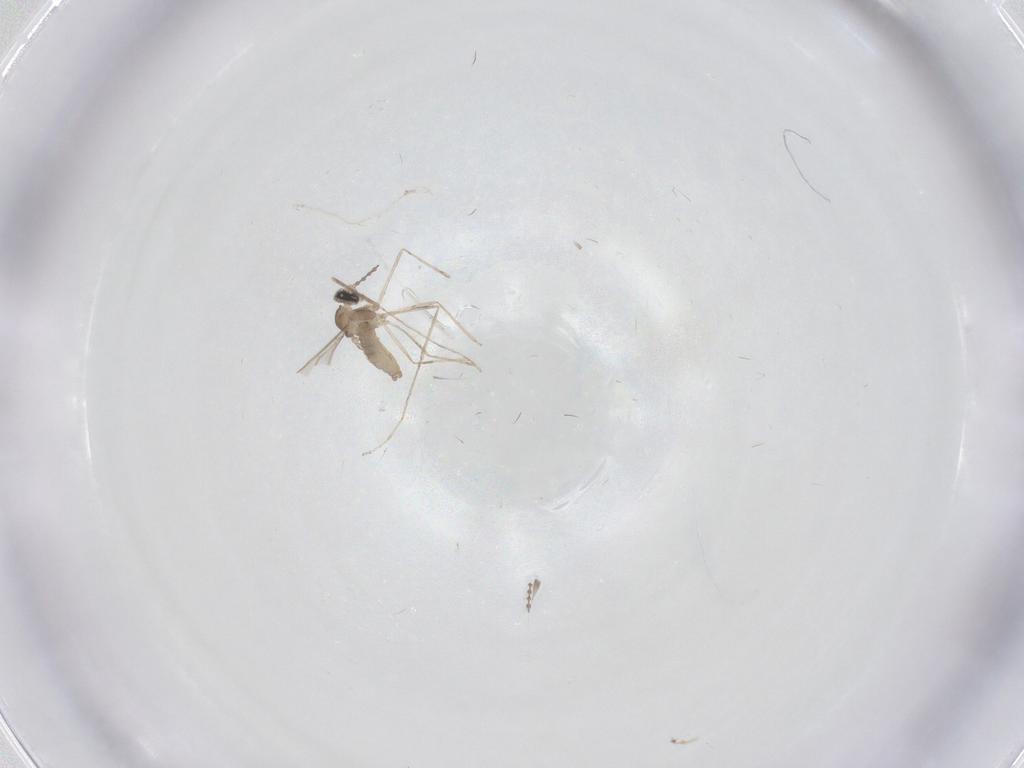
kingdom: Animalia
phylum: Arthropoda
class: Insecta
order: Diptera
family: Cecidomyiidae
